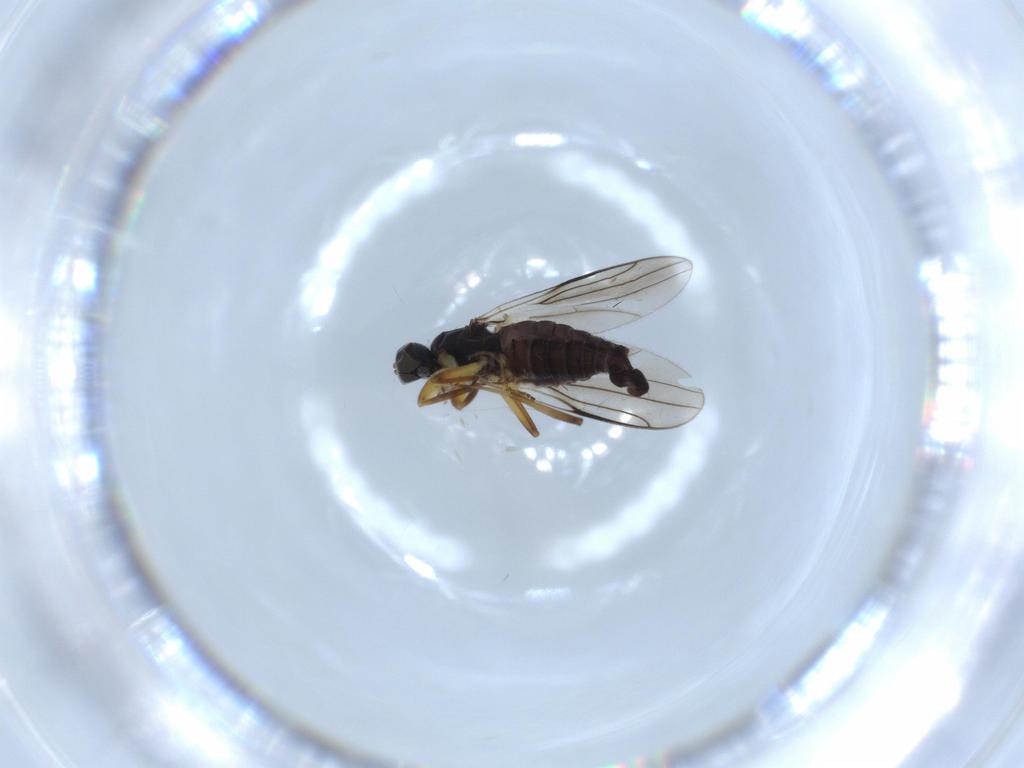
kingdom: Animalia
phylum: Arthropoda
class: Insecta
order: Diptera
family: Hybotidae
